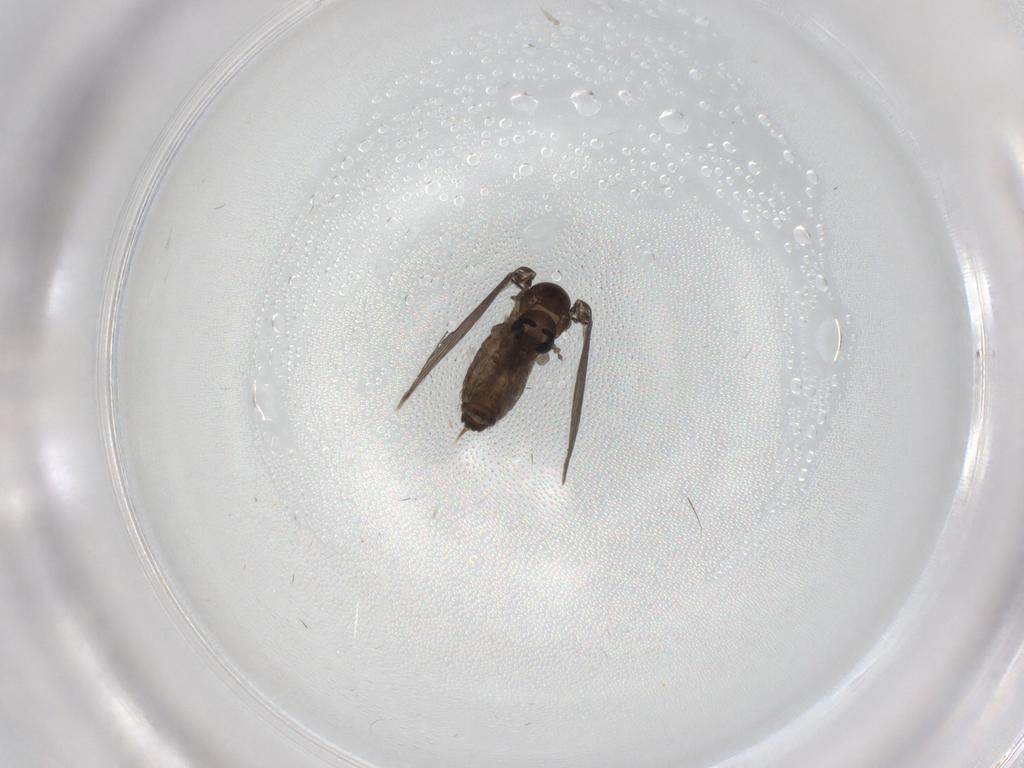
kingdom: Animalia
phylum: Arthropoda
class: Insecta
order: Diptera
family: Psychodidae
